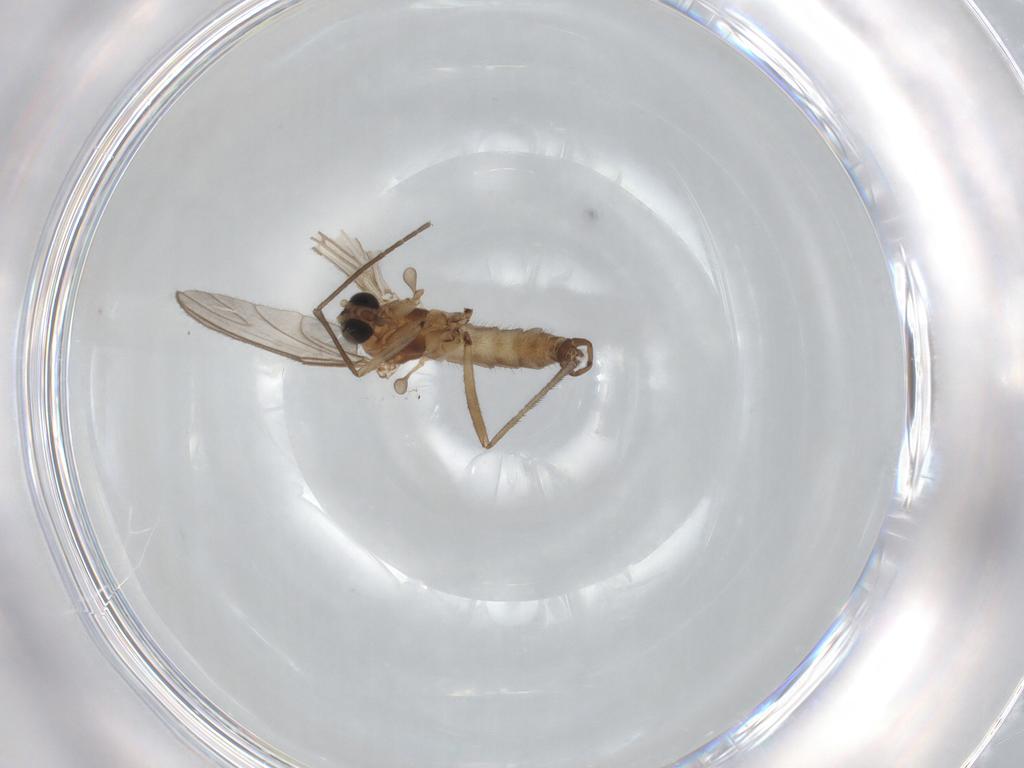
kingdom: Animalia
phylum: Arthropoda
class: Insecta
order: Diptera
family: Sciaridae
